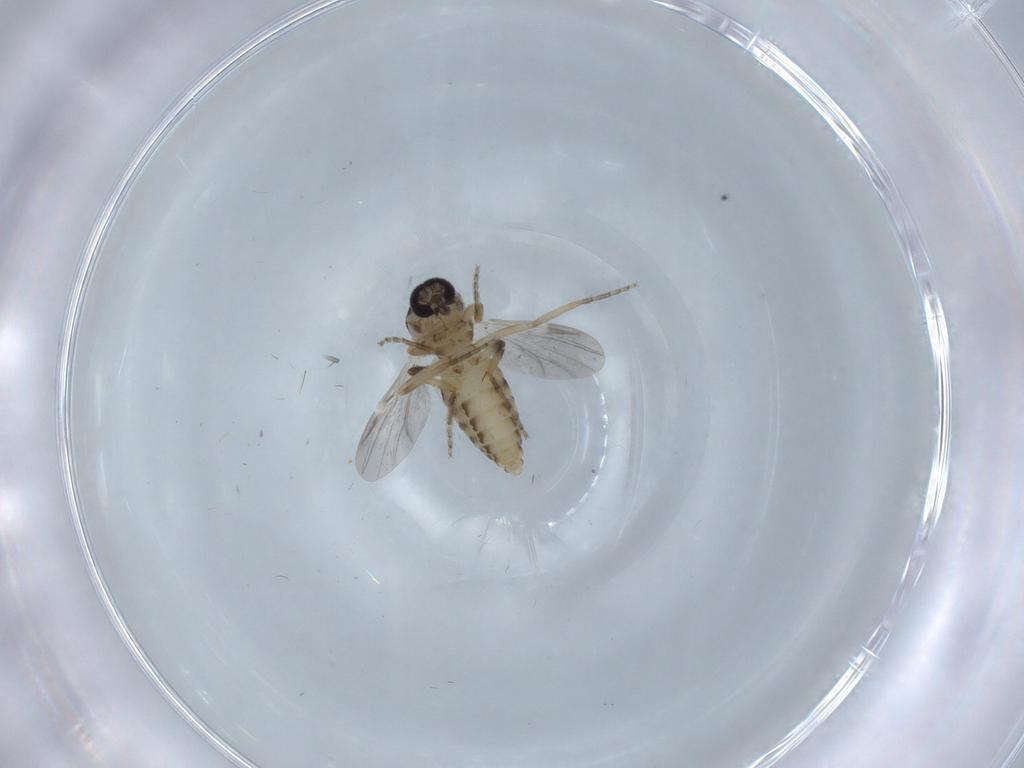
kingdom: Animalia
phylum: Arthropoda
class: Insecta
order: Diptera
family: Ceratopogonidae
